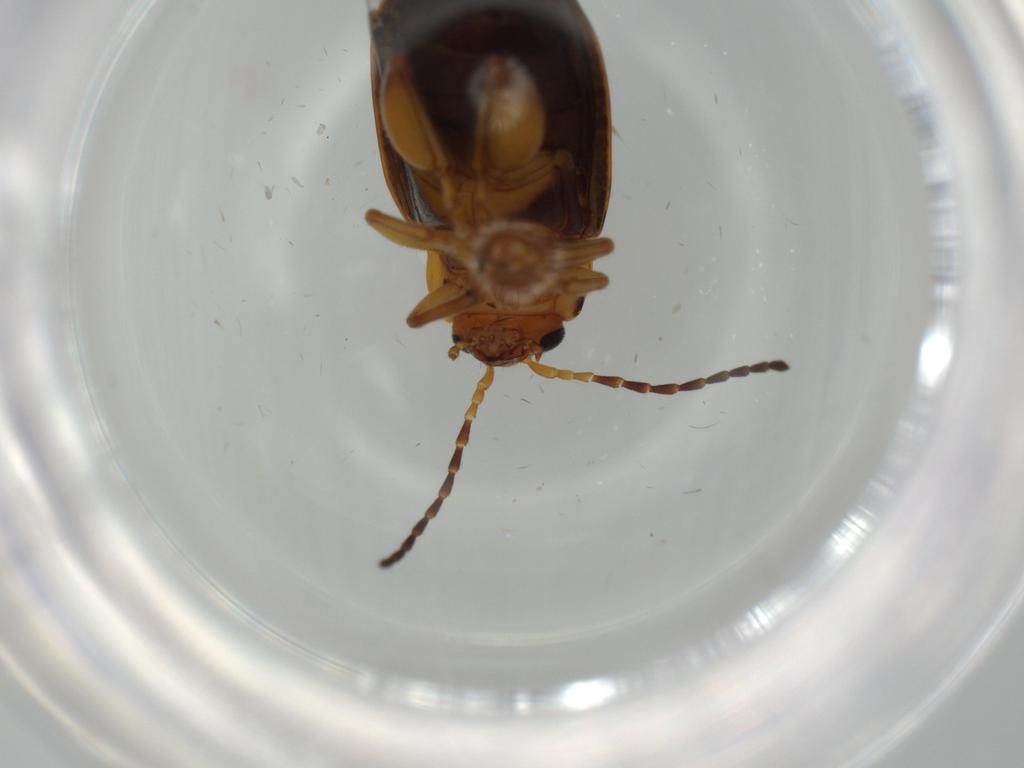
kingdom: Animalia
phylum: Arthropoda
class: Insecta
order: Coleoptera
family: Chrysomelidae
